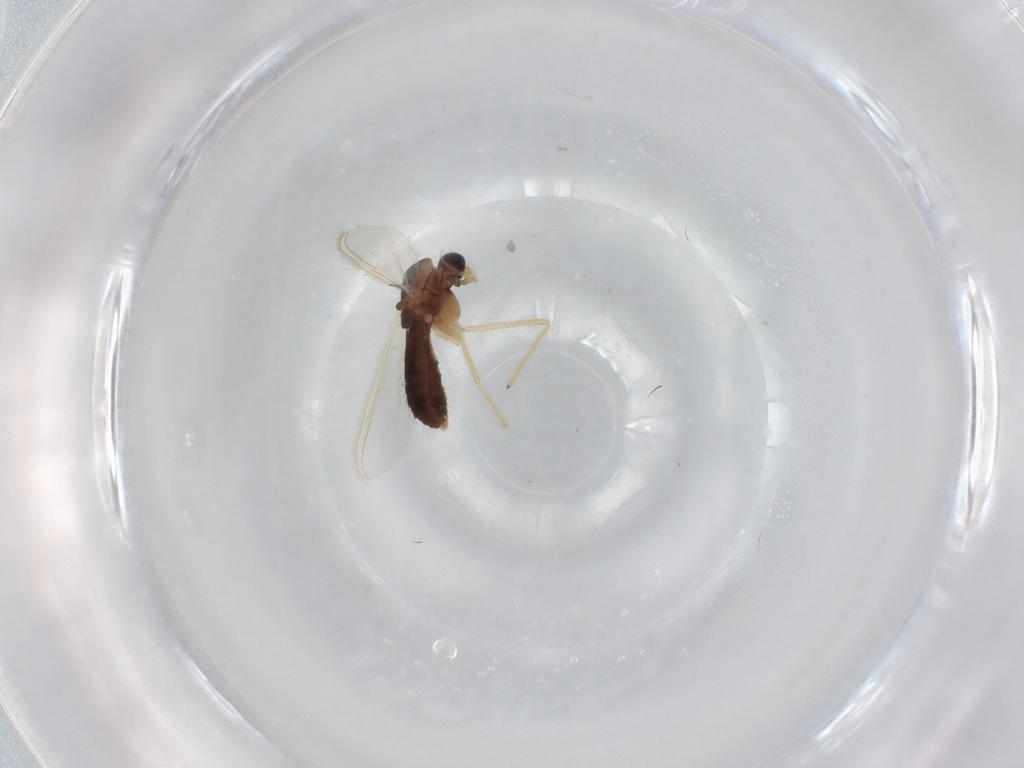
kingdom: Animalia
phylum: Arthropoda
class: Insecta
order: Diptera
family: Chironomidae
